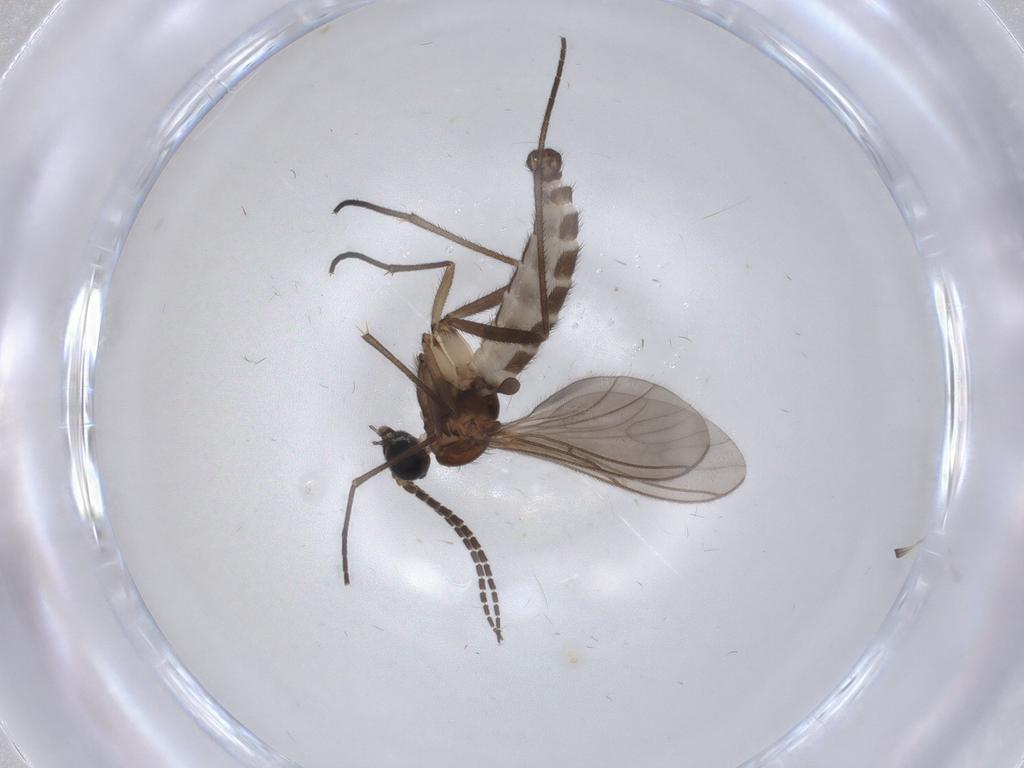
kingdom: Animalia
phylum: Arthropoda
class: Insecta
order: Diptera
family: Sciaridae
